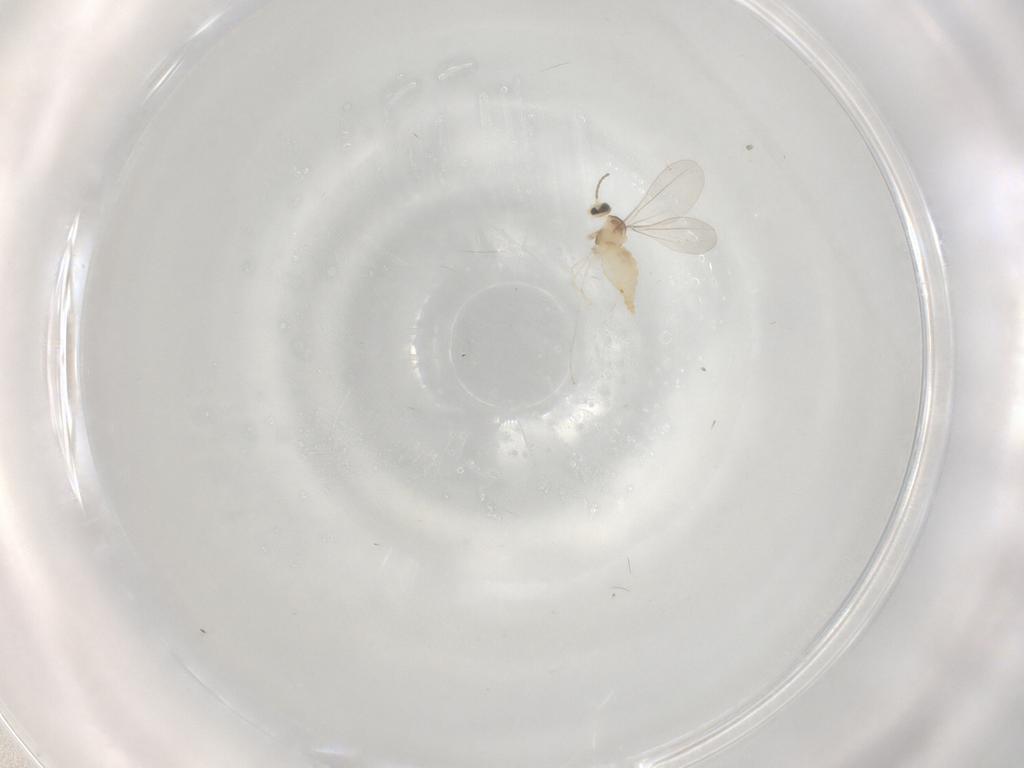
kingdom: Animalia
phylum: Arthropoda
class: Insecta
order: Diptera
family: Cecidomyiidae
